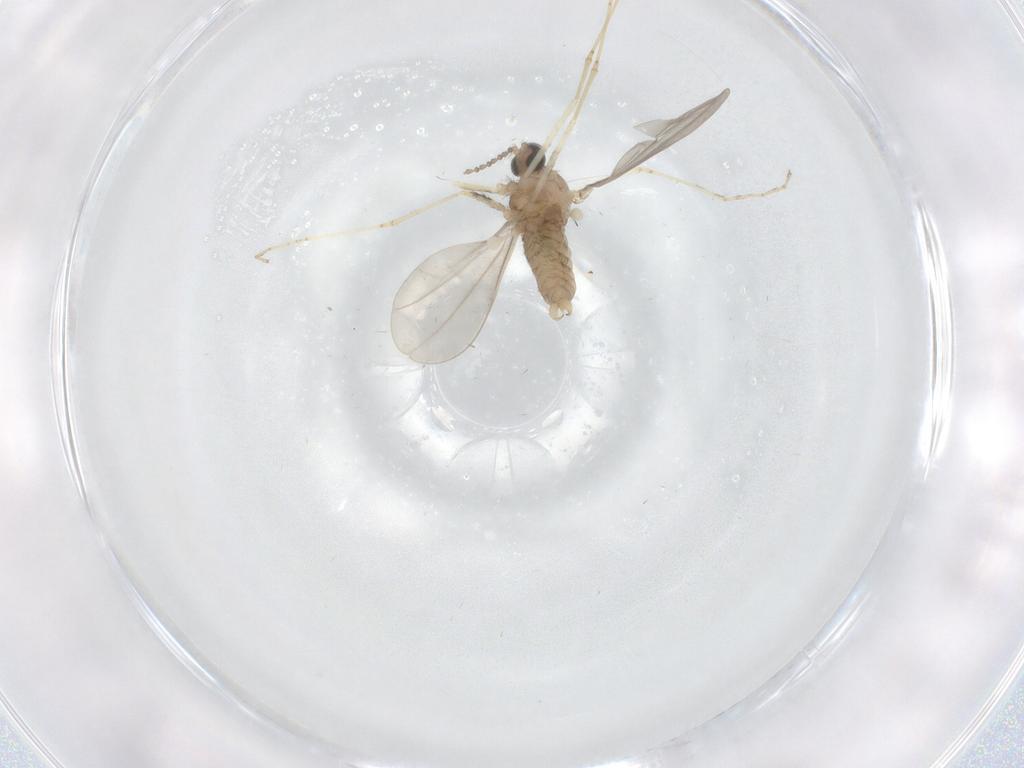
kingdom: Animalia
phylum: Arthropoda
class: Insecta
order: Diptera
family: Cecidomyiidae
